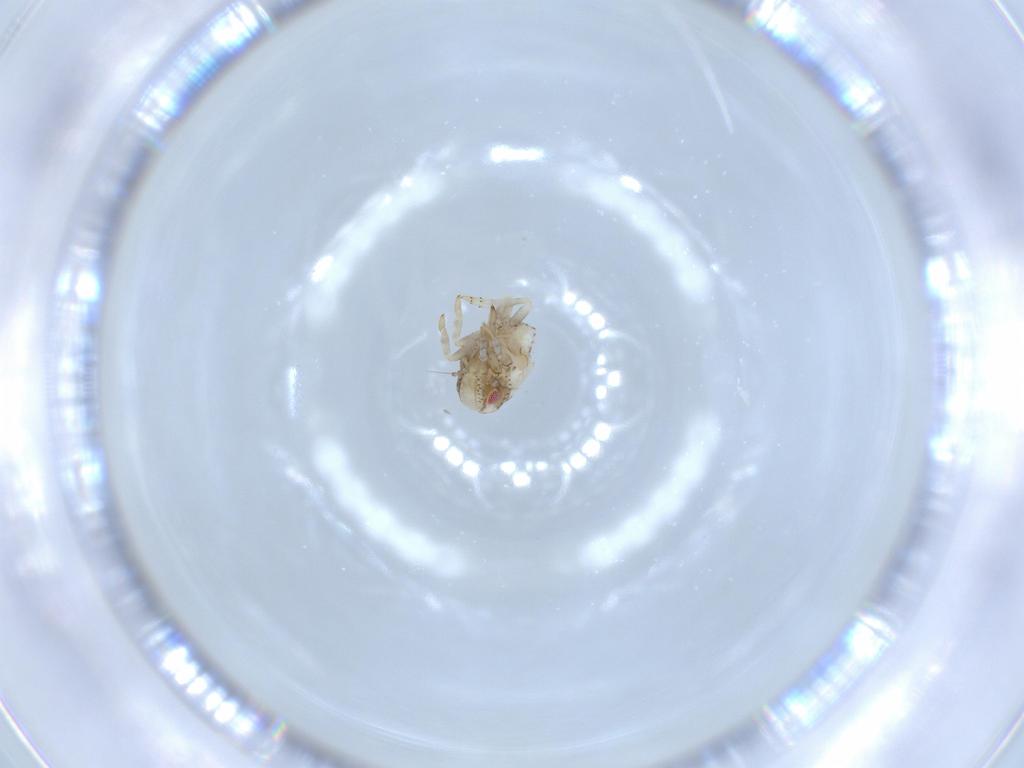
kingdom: Animalia
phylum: Arthropoda
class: Insecta
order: Hemiptera
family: Acanaloniidae
